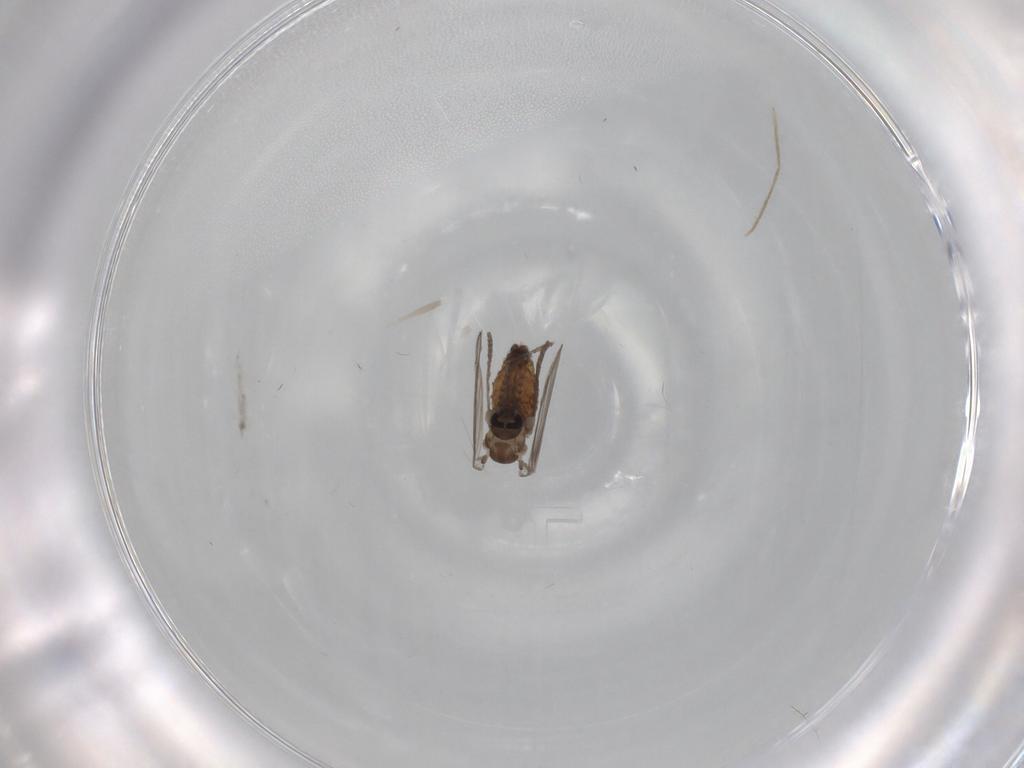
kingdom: Animalia
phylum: Arthropoda
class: Insecta
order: Diptera
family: Chironomidae
